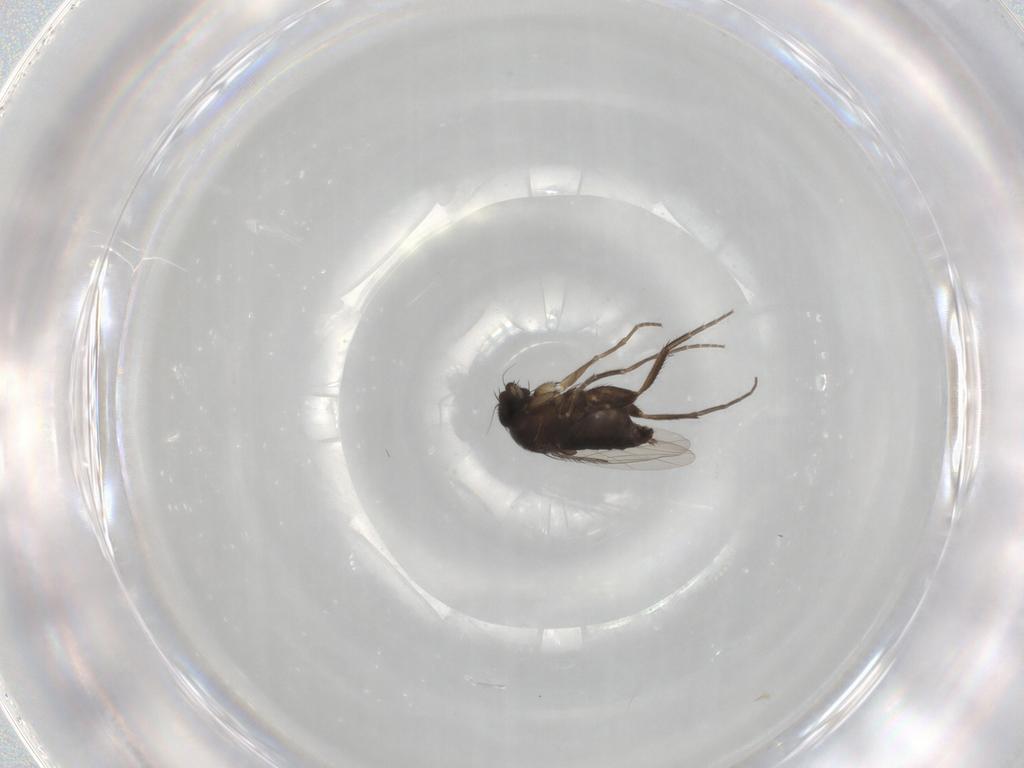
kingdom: Animalia
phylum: Arthropoda
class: Insecta
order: Diptera
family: Phoridae
